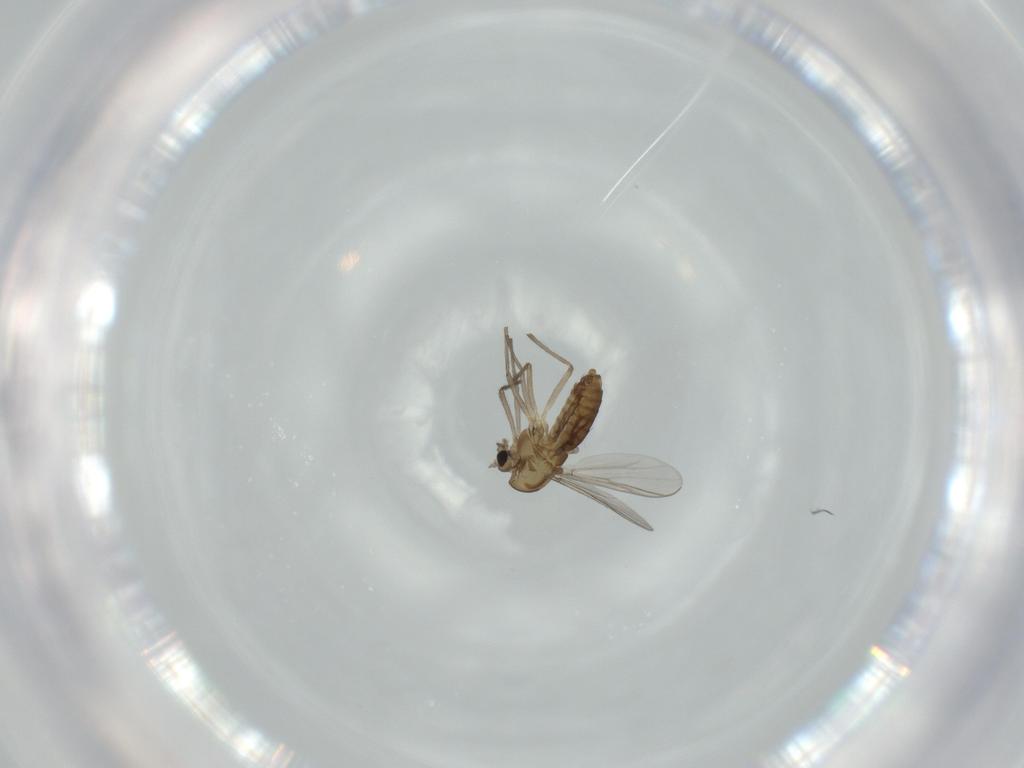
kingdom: Animalia
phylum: Arthropoda
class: Insecta
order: Diptera
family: Chironomidae
